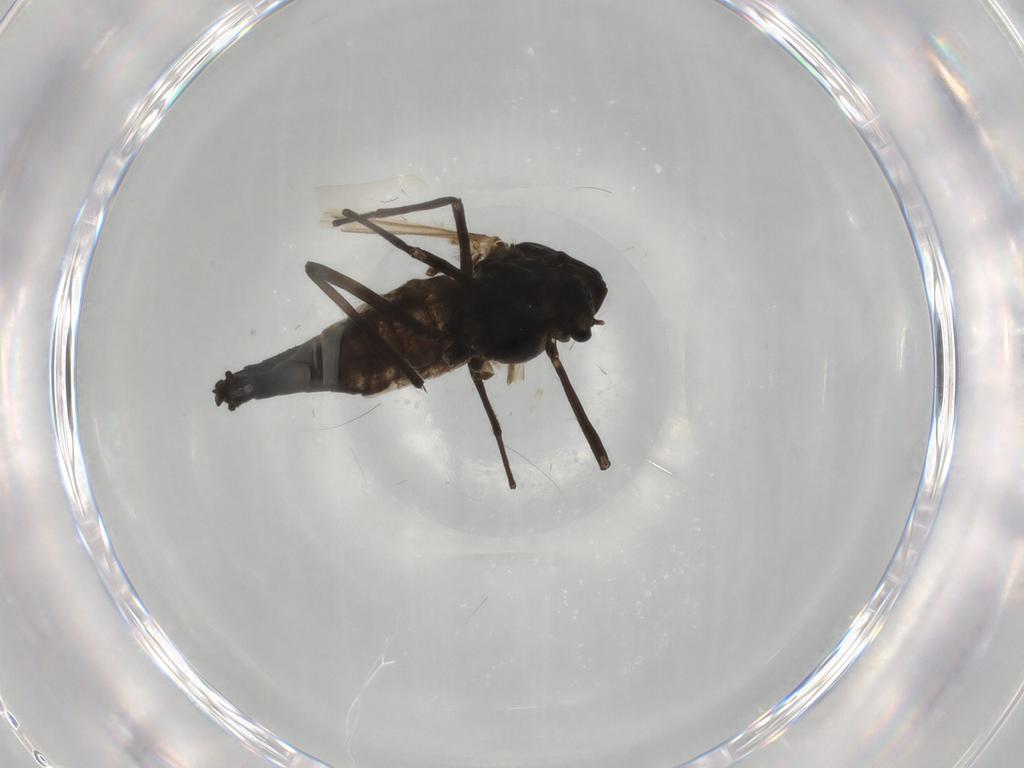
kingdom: Animalia
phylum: Arthropoda
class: Insecta
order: Diptera
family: Chironomidae
